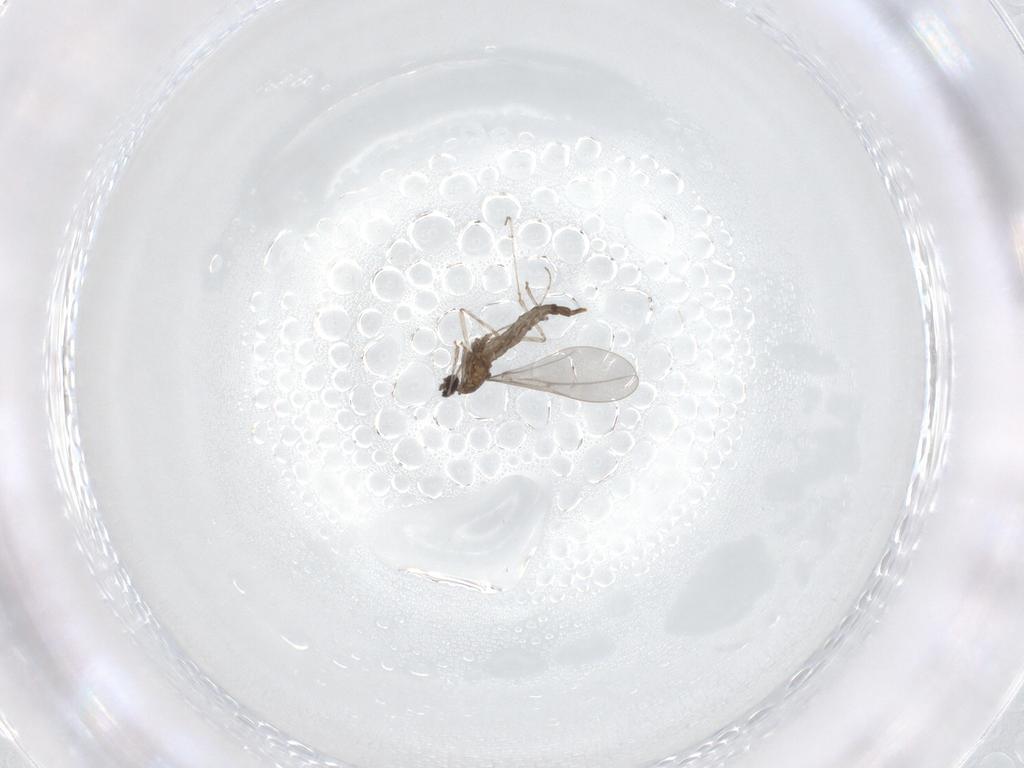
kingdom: Animalia
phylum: Arthropoda
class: Insecta
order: Diptera
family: Cecidomyiidae
